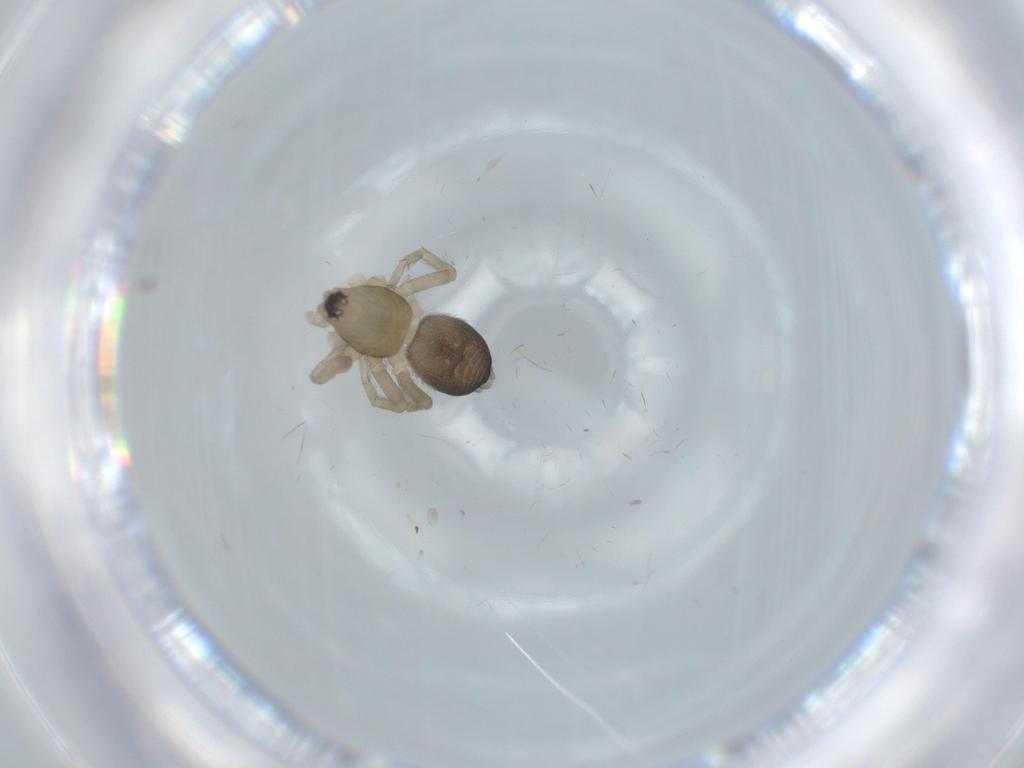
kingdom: Animalia
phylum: Arthropoda
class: Arachnida
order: Araneae
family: Gnaphosidae
